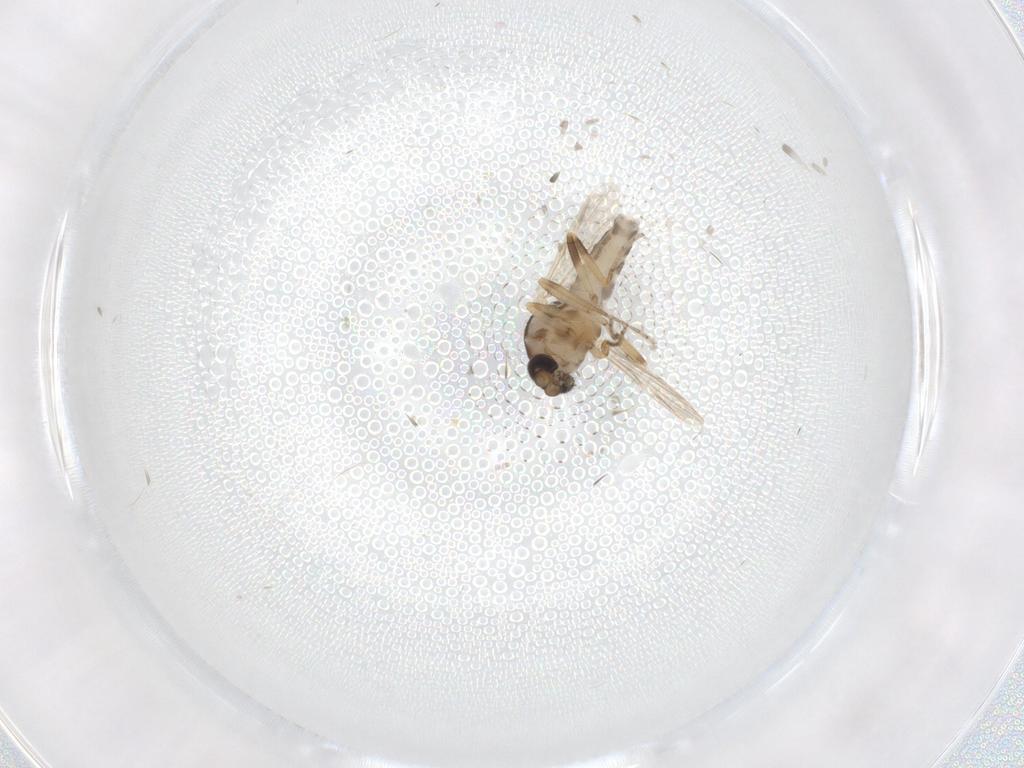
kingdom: Animalia
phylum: Arthropoda
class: Insecta
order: Diptera
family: Ceratopogonidae
